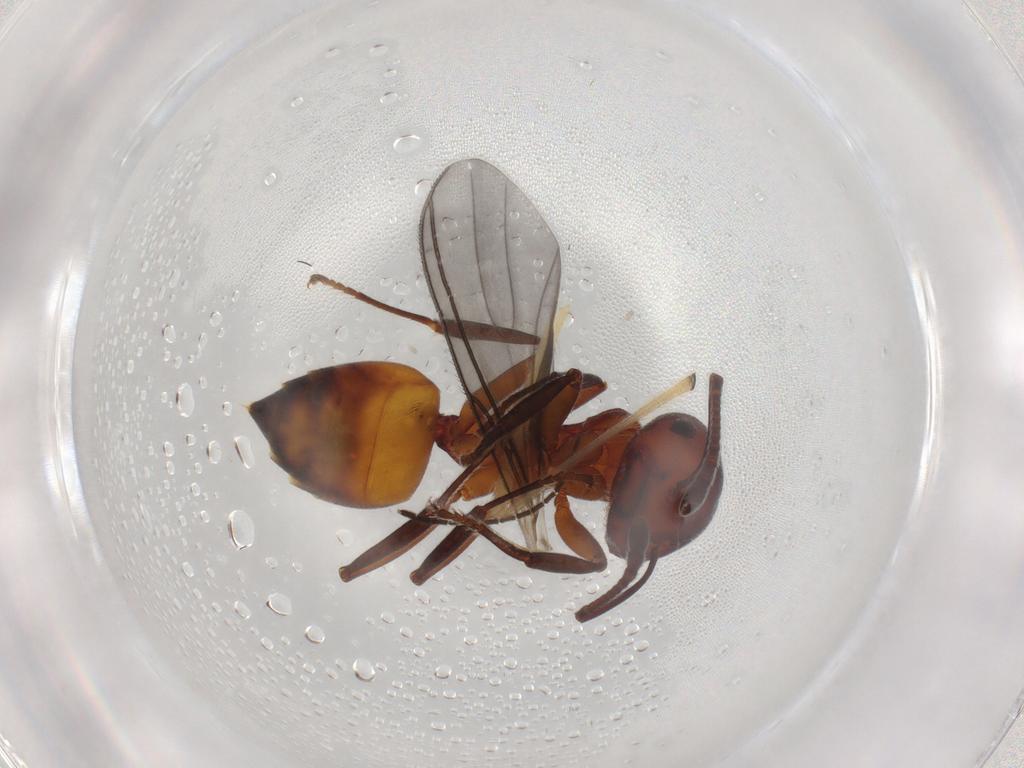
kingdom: Animalia
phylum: Arthropoda
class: Insecta
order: Hymenoptera
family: Formicidae
